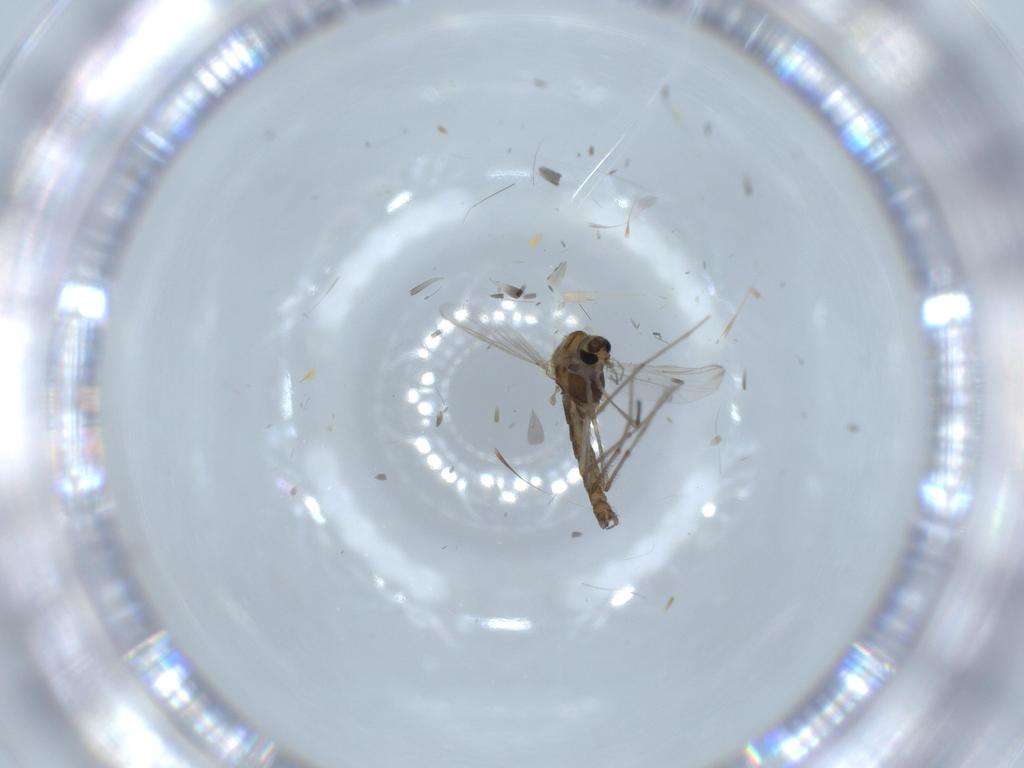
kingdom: Animalia
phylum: Arthropoda
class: Insecta
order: Diptera
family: Chironomidae
